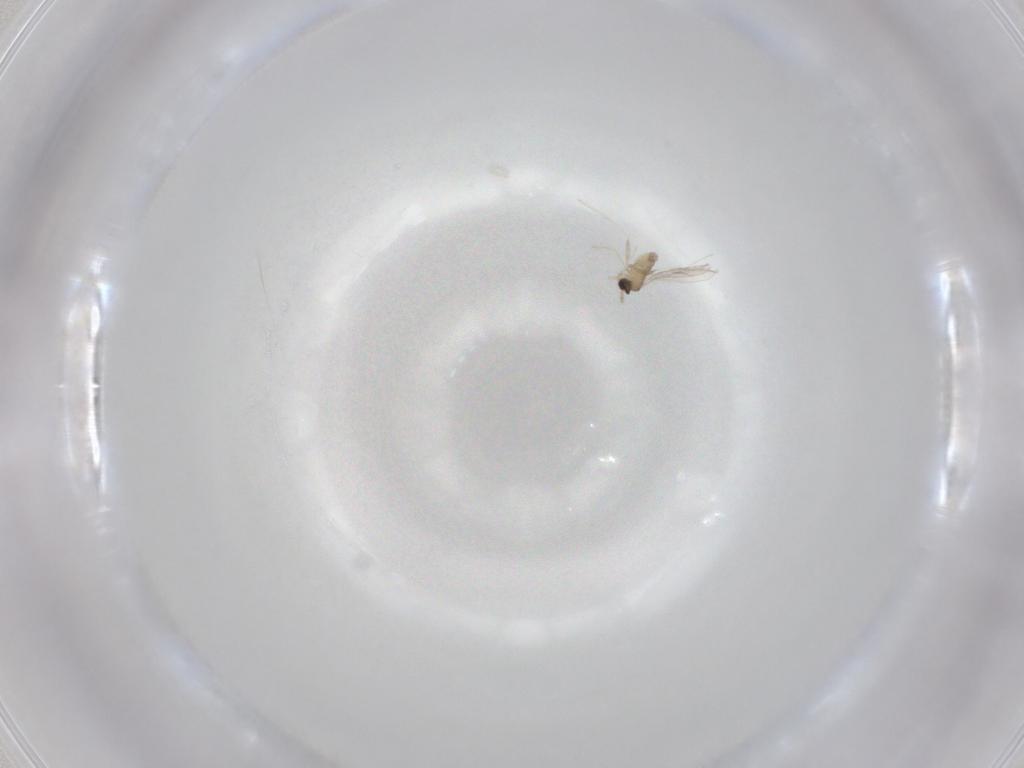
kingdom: Animalia
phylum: Arthropoda
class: Insecta
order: Diptera
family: Cecidomyiidae
